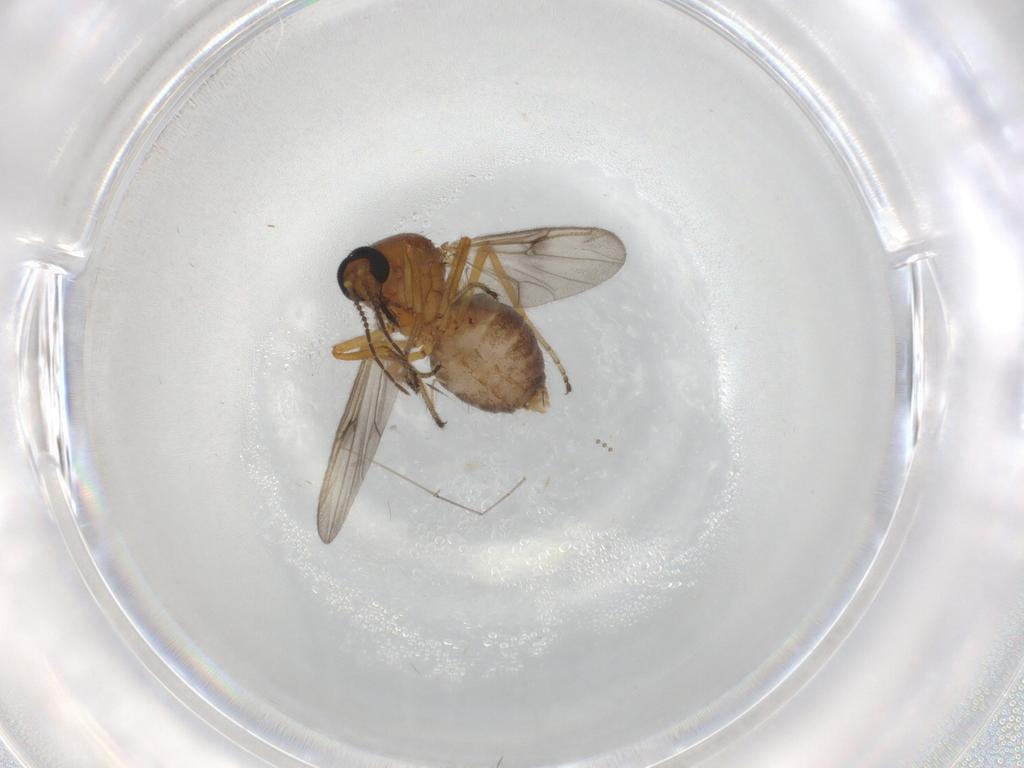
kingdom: Animalia
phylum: Arthropoda
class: Insecta
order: Diptera
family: Ceratopogonidae
